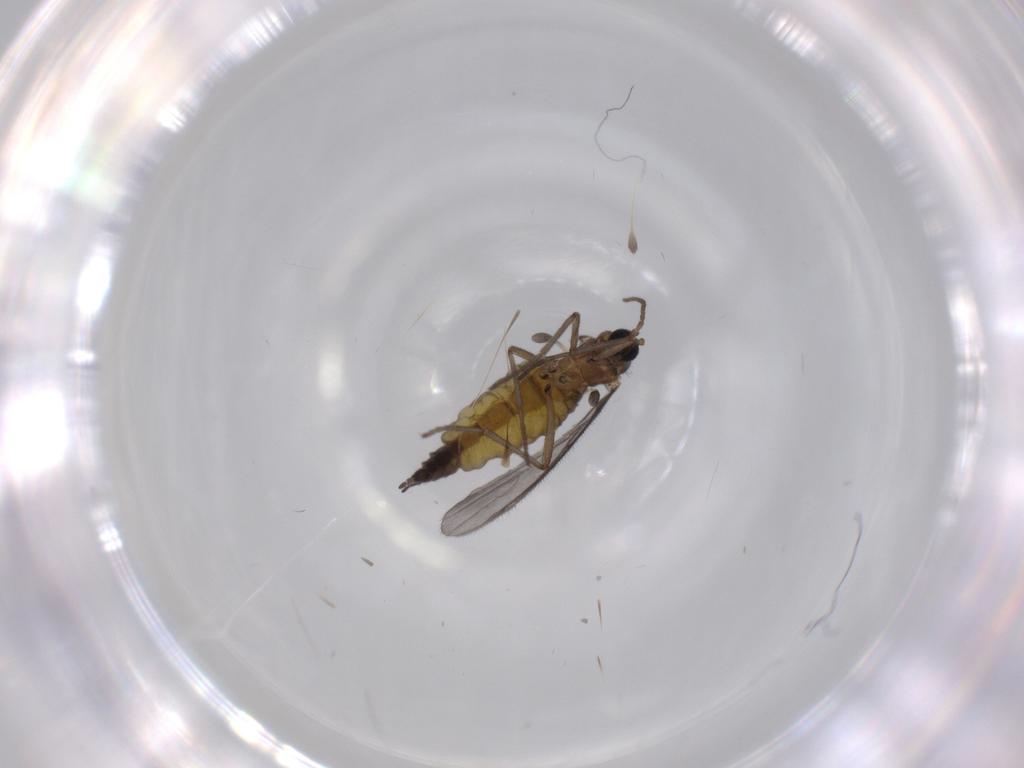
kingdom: Animalia
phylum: Arthropoda
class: Insecta
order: Diptera
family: Sciaridae
